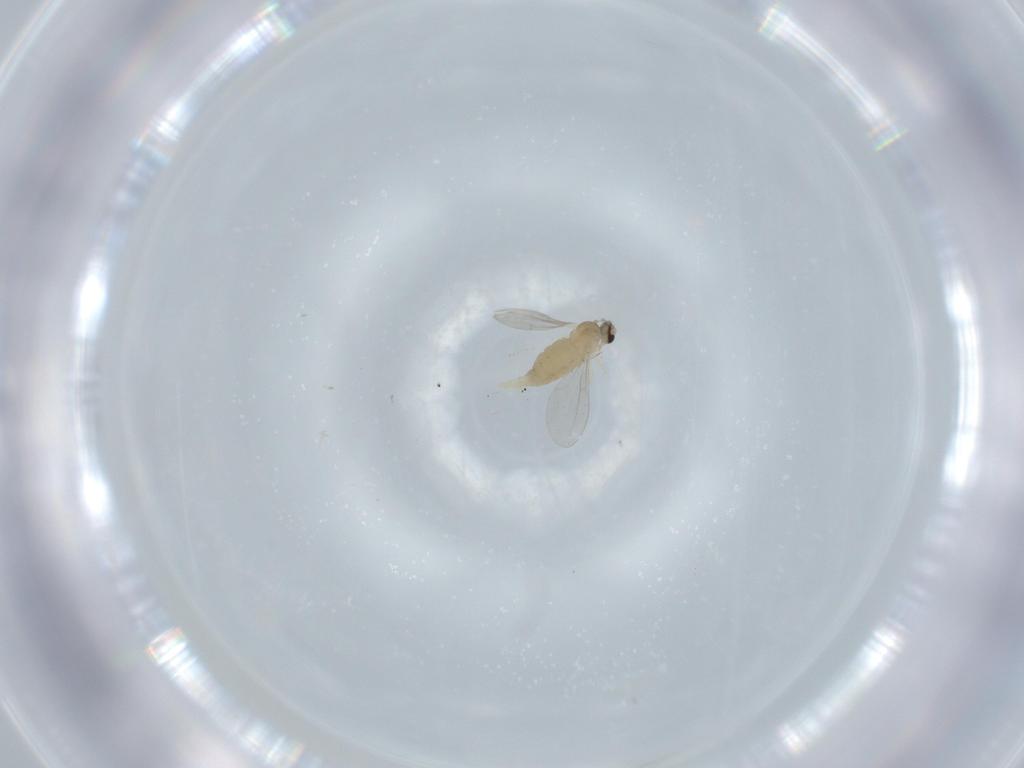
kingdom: Animalia
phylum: Arthropoda
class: Insecta
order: Diptera
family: Cecidomyiidae
